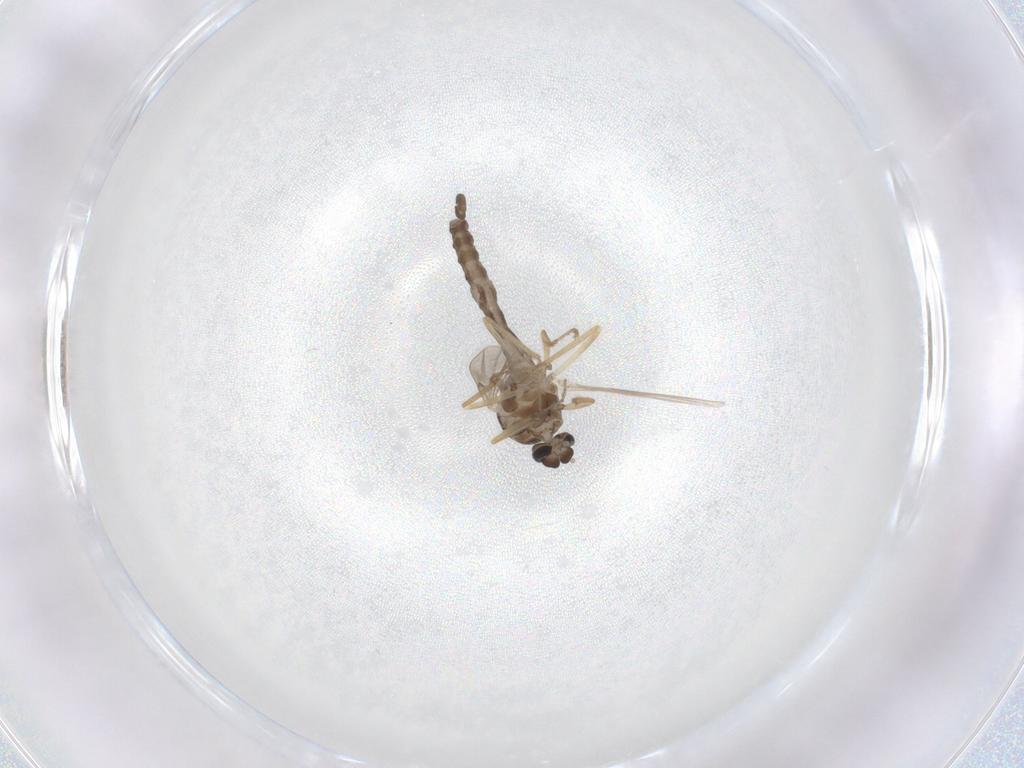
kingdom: Animalia
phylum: Arthropoda
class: Insecta
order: Diptera
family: Ceratopogonidae
